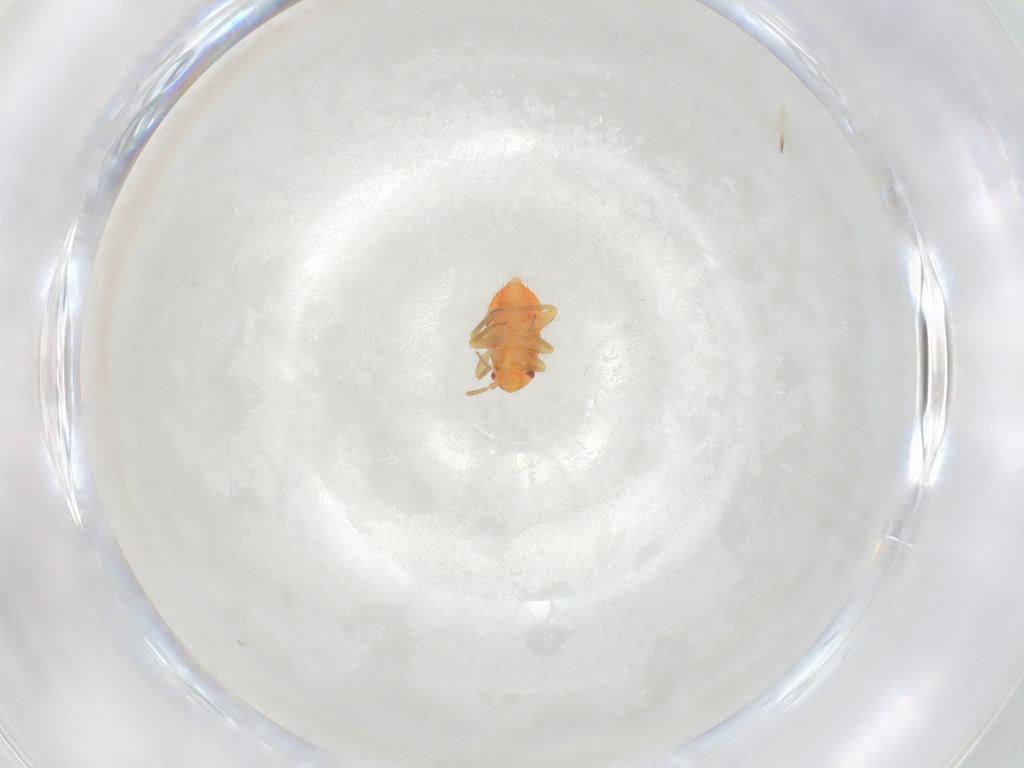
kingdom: Animalia
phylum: Arthropoda
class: Insecta
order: Hemiptera
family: Miridae
